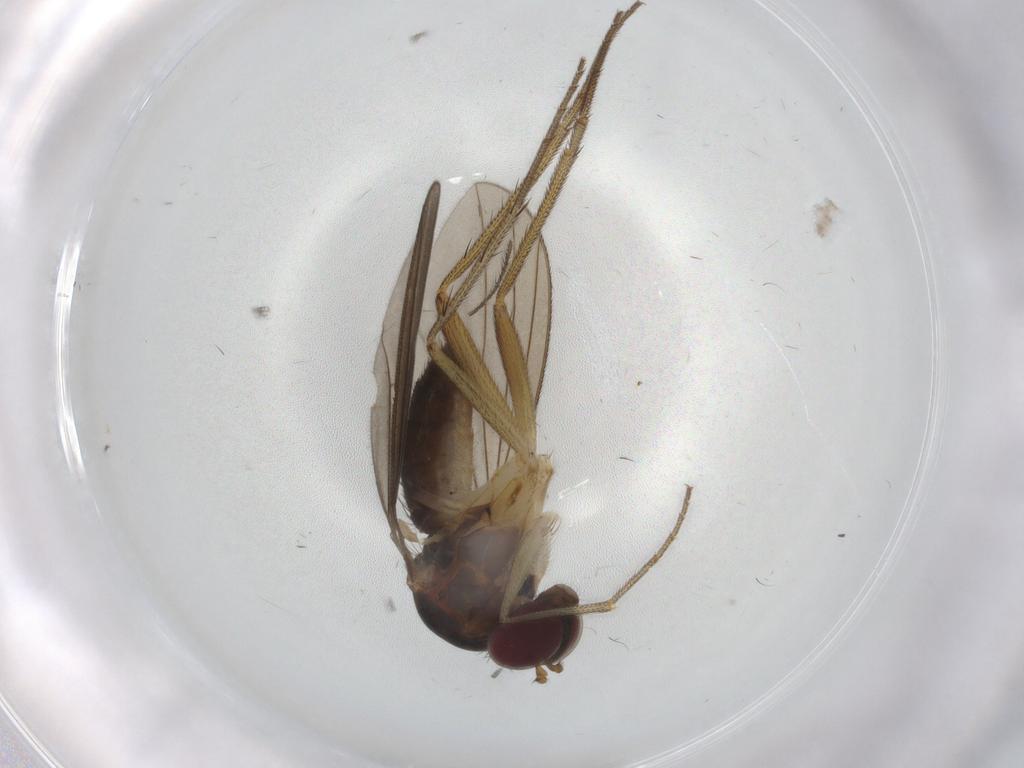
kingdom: Animalia
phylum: Arthropoda
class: Insecta
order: Diptera
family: Dolichopodidae
